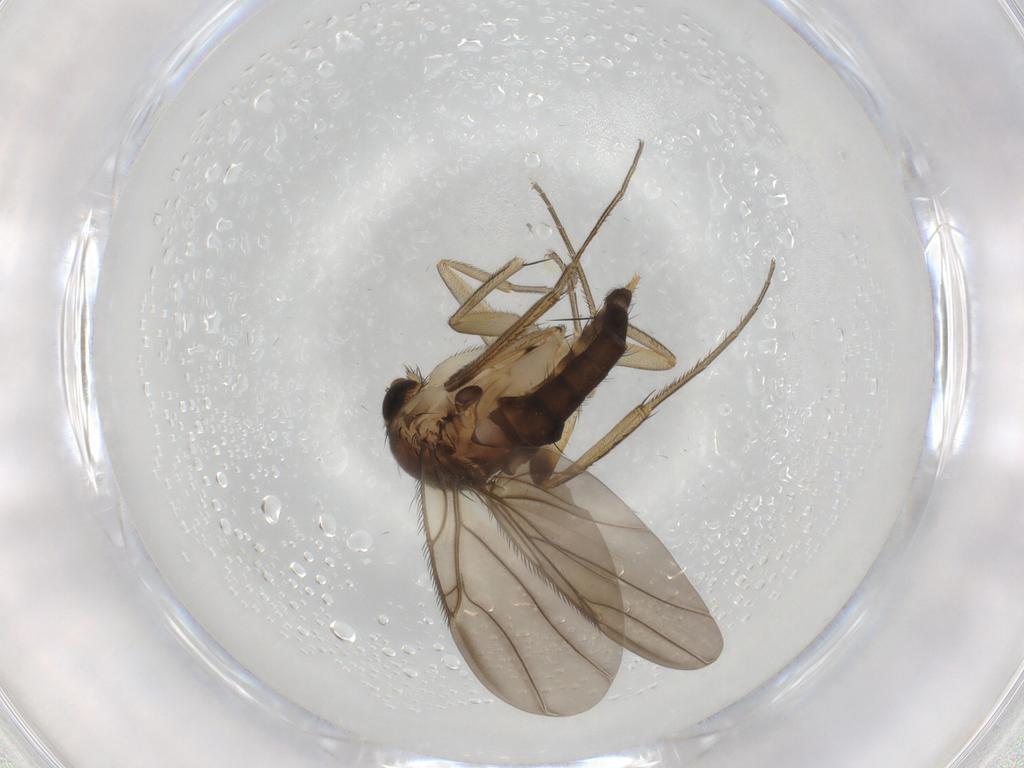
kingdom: Animalia
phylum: Arthropoda
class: Insecta
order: Diptera
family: Phoridae
